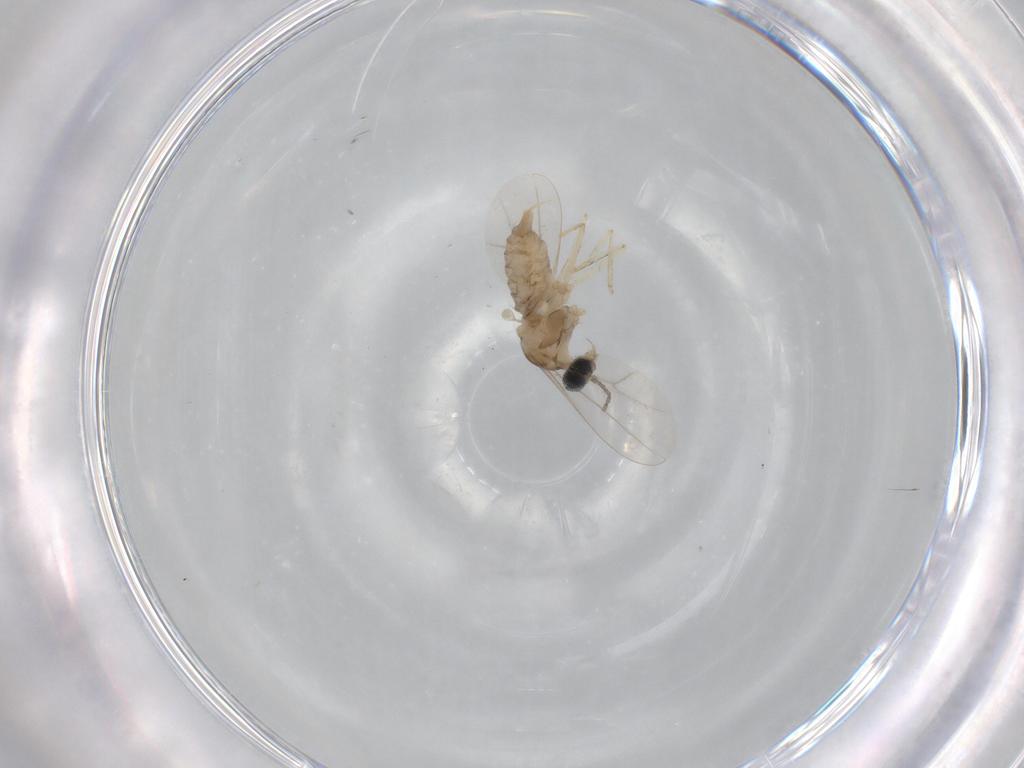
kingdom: Animalia
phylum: Arthropoda
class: Insecta
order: Diptera
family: Cecidomyiidae
